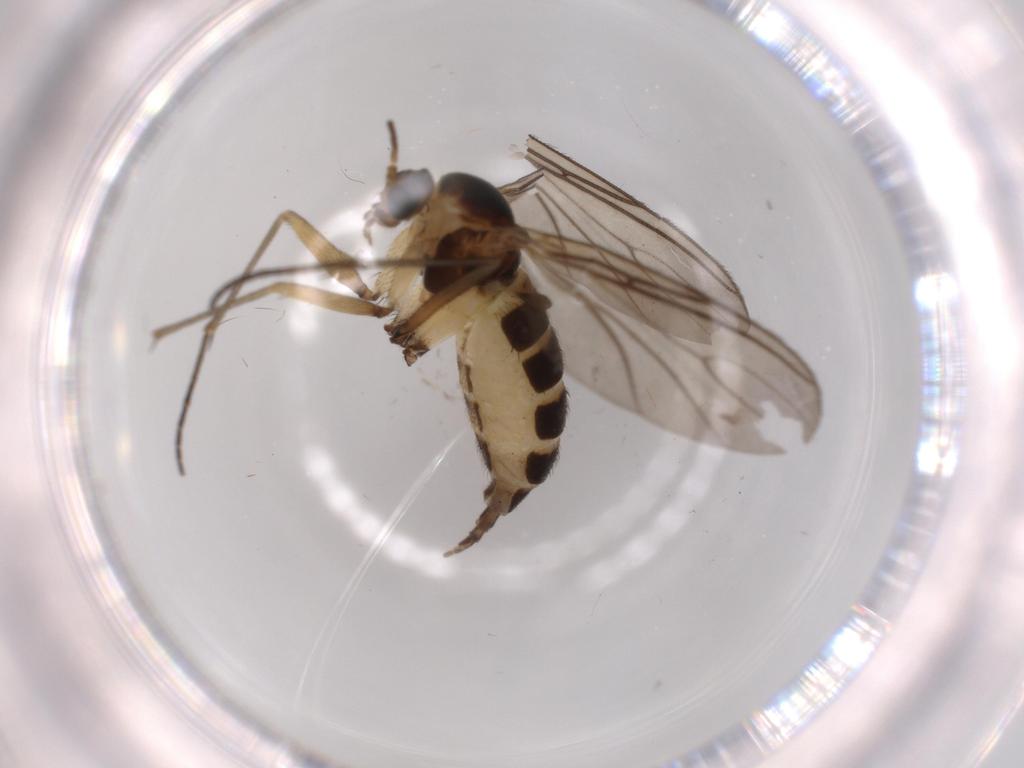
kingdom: Animalia
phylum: Arthropoda
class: Insecta
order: Diptera
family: Sciaridae
